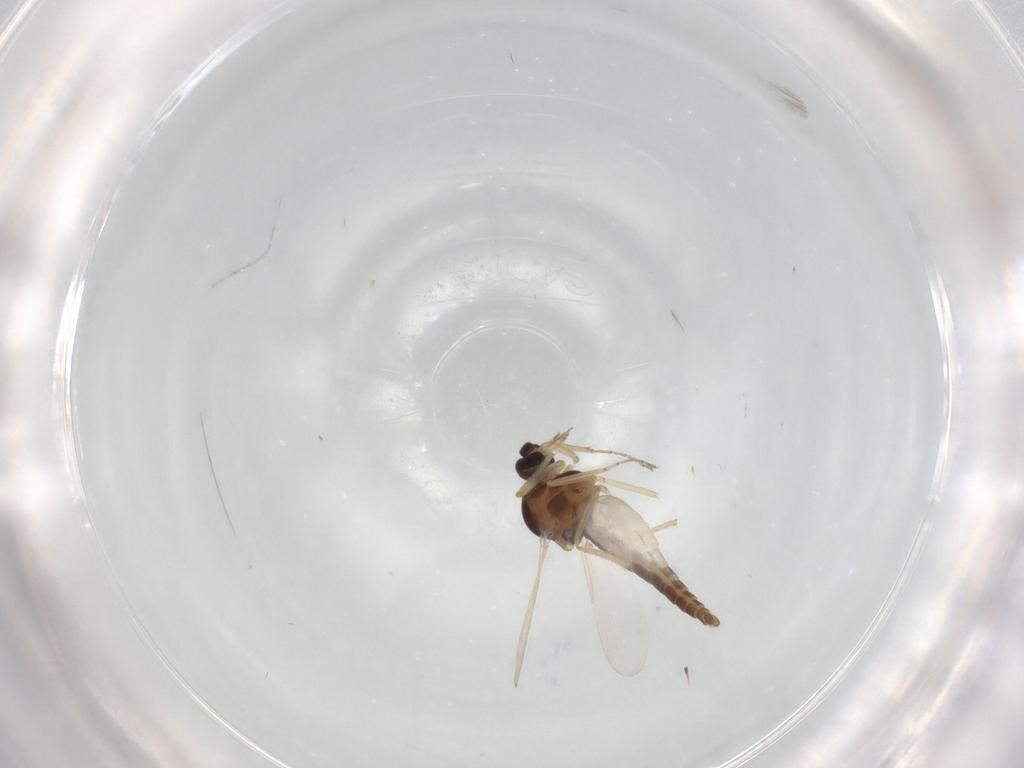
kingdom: Animalia
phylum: Arthropoda
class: Insecta
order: Diptera
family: Ceratopogonidae
